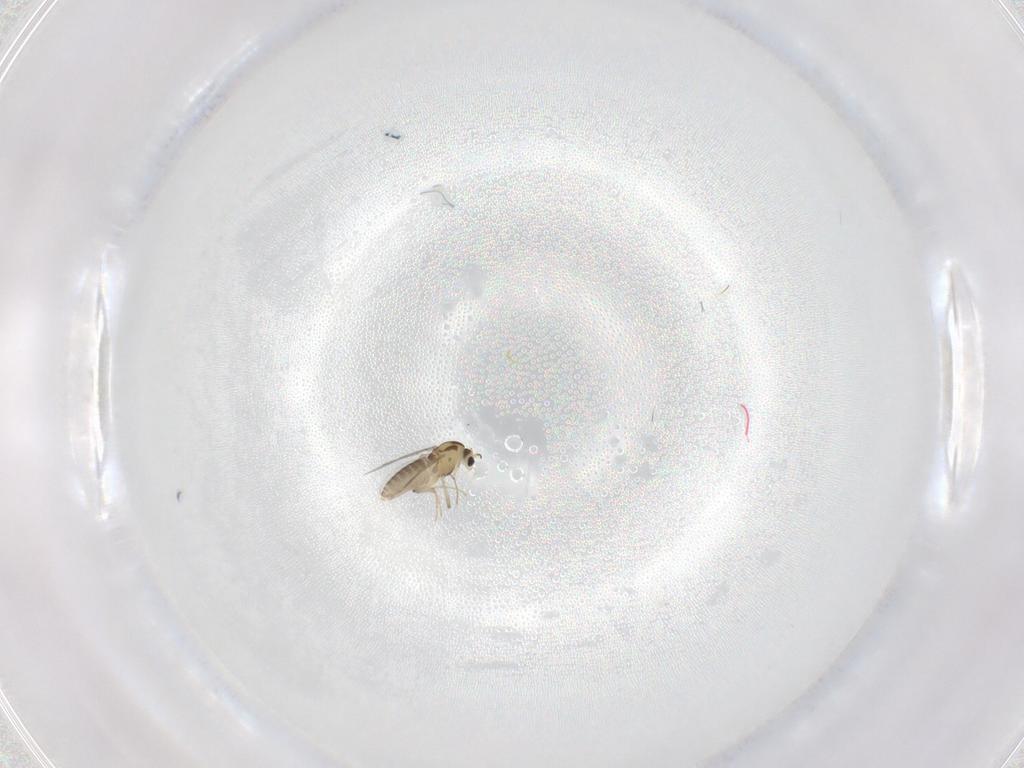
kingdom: Animalia
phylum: Arthropoda
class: Insecta
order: Diptera
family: Chironomidae
